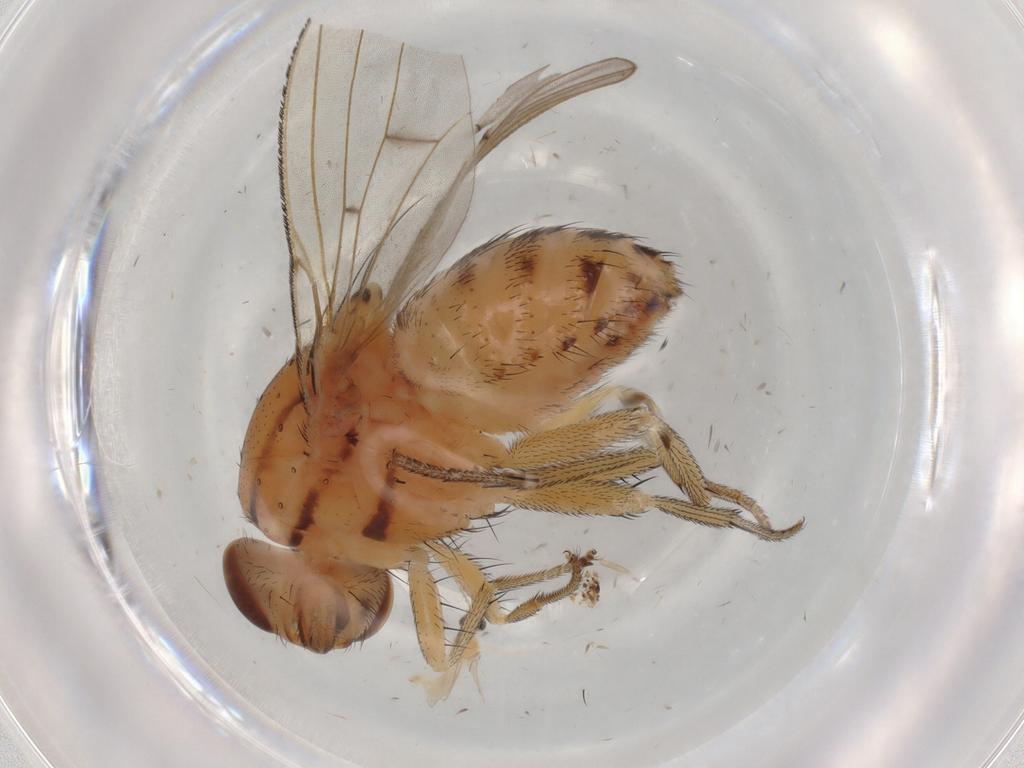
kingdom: Animalia
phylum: Arthropoda
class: Insecta
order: Diptera
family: Cecidomyiidae
